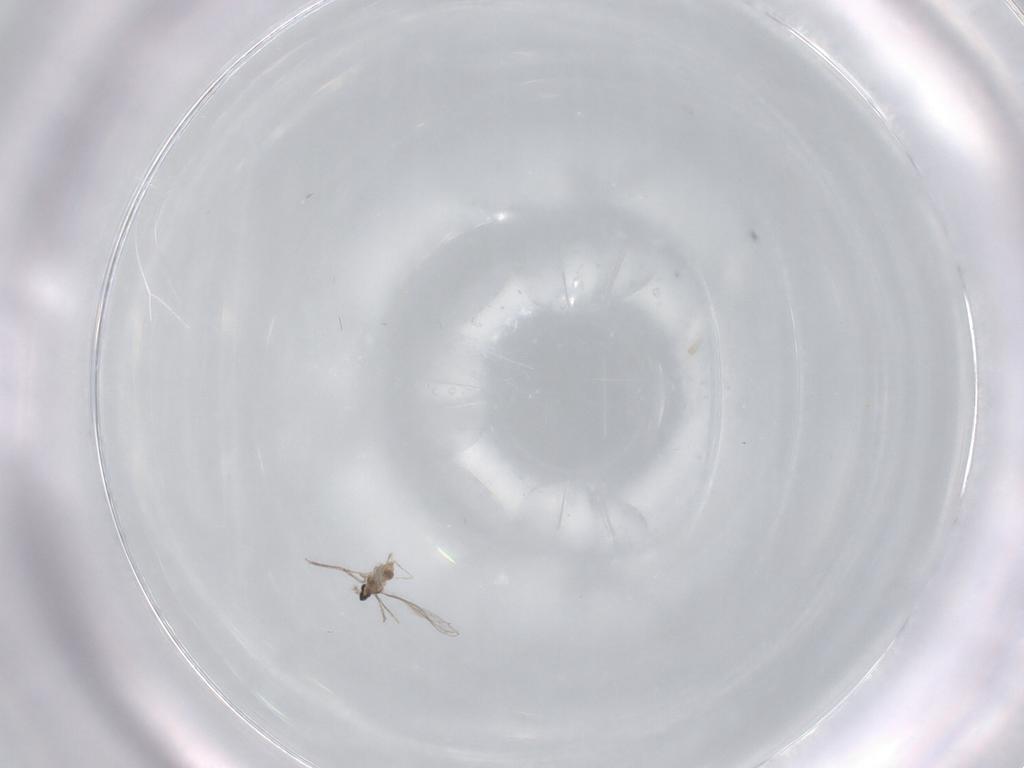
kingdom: Animalia
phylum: Arthropoda
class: Insecta
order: Diptera
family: Cecidomyiidae
